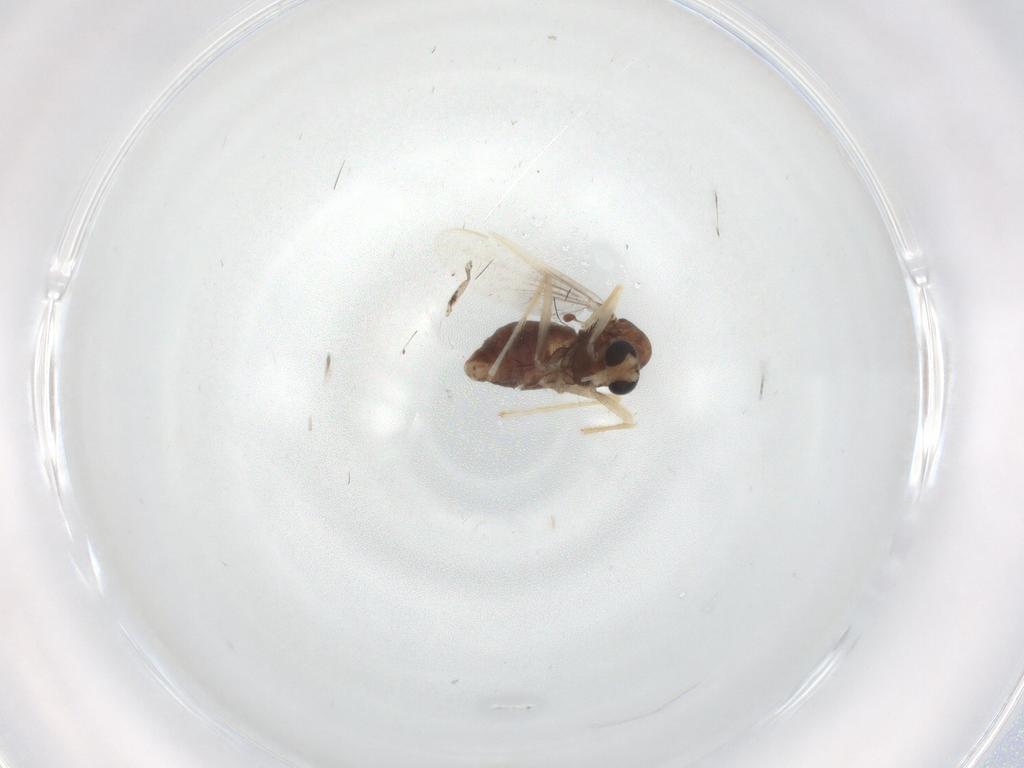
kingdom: Animalia
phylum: Arthropoda
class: Insecta
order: Diptera
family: Chironomidae
